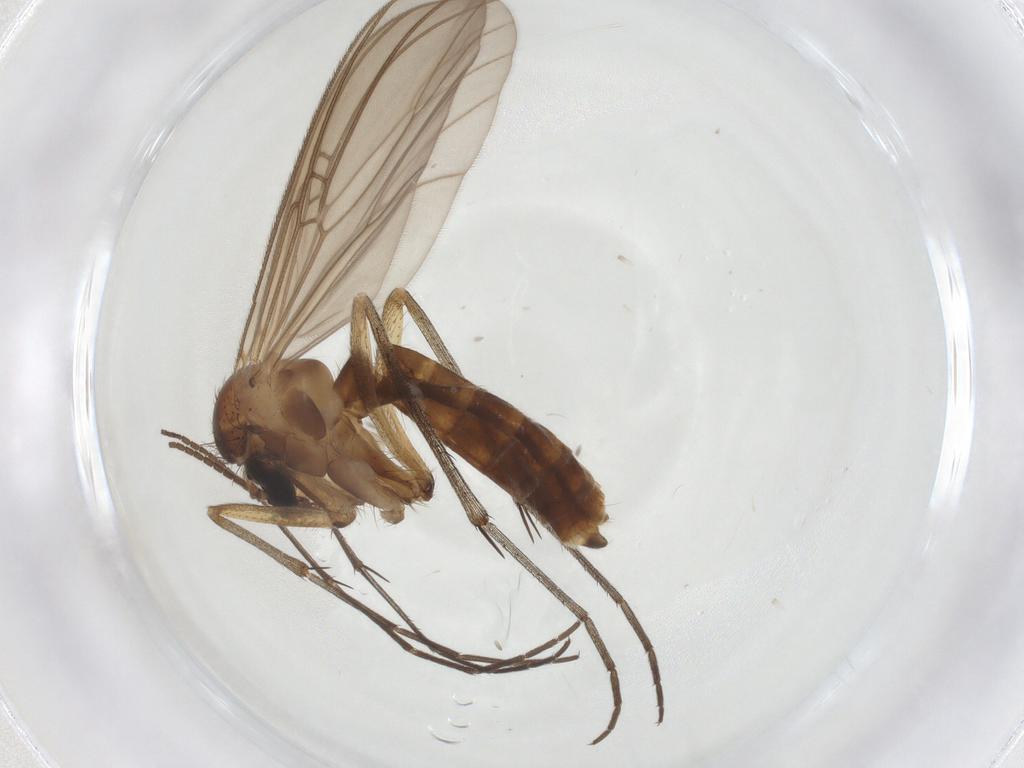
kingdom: Animalia
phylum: Arthropoda
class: Insecta
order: Diptera
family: Mycetophilidae
